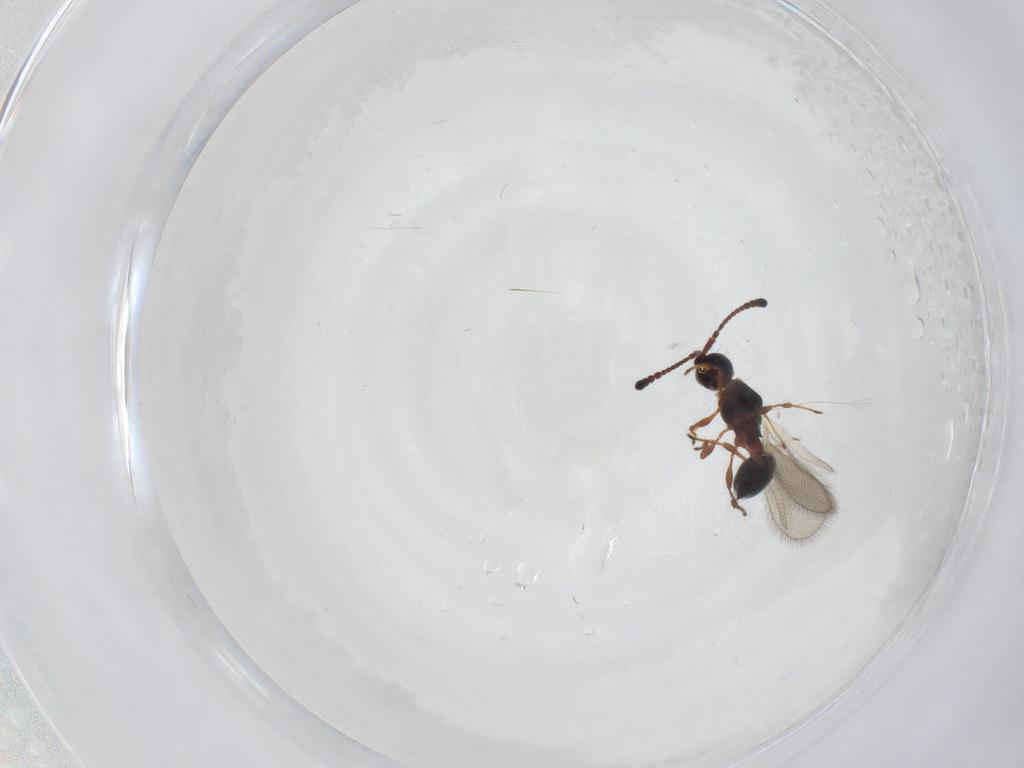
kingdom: Animalia
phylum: Arthropoda
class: Insecta
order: Hymenoptera
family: Diapriidae
